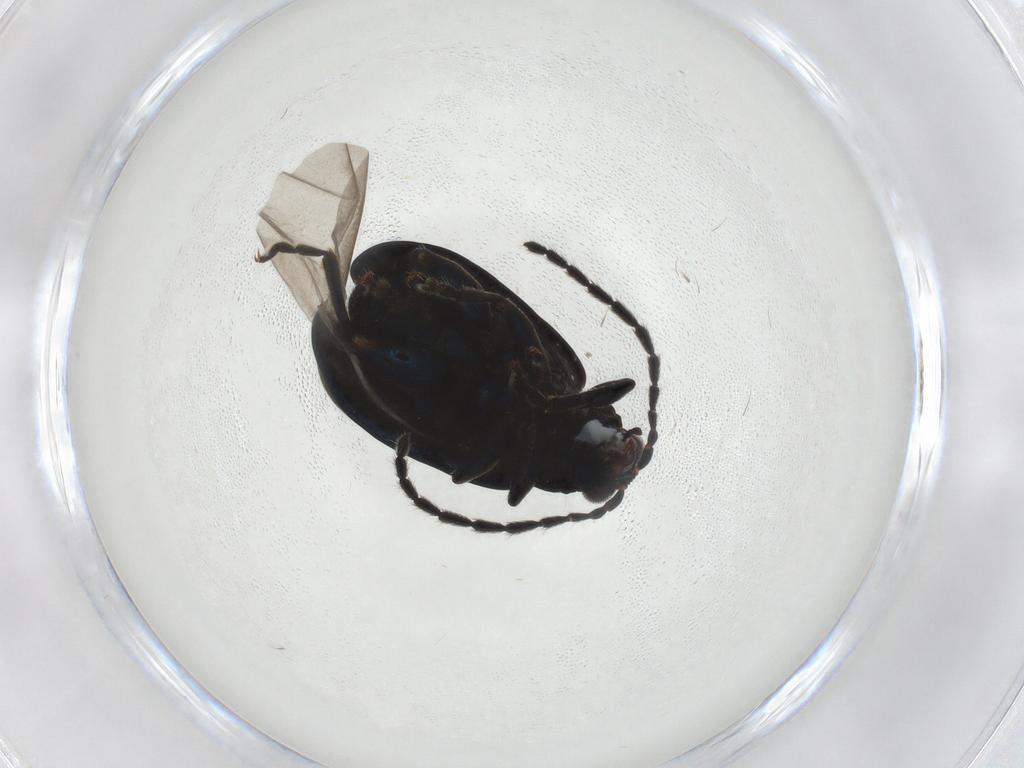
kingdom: Animalia
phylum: Arthropoda
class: Insecta
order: Coleoptera
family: Chrysomelidae
